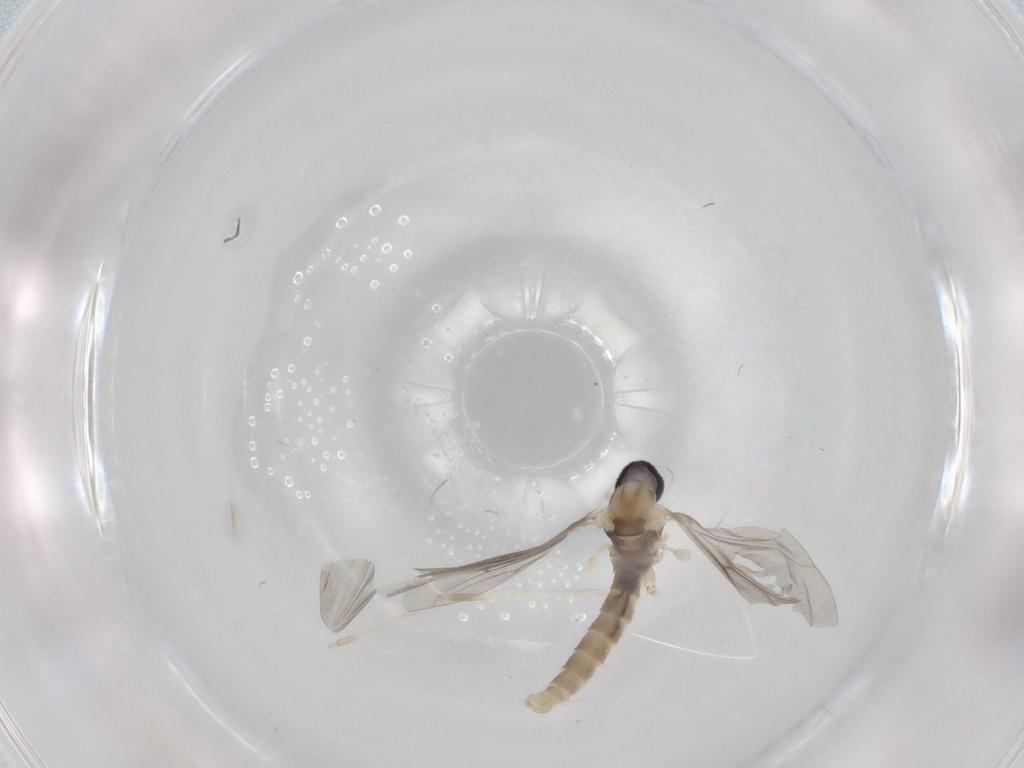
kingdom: Animalia
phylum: Arthropoda
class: Insecta
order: Diptera
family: Cecidomyiidae
